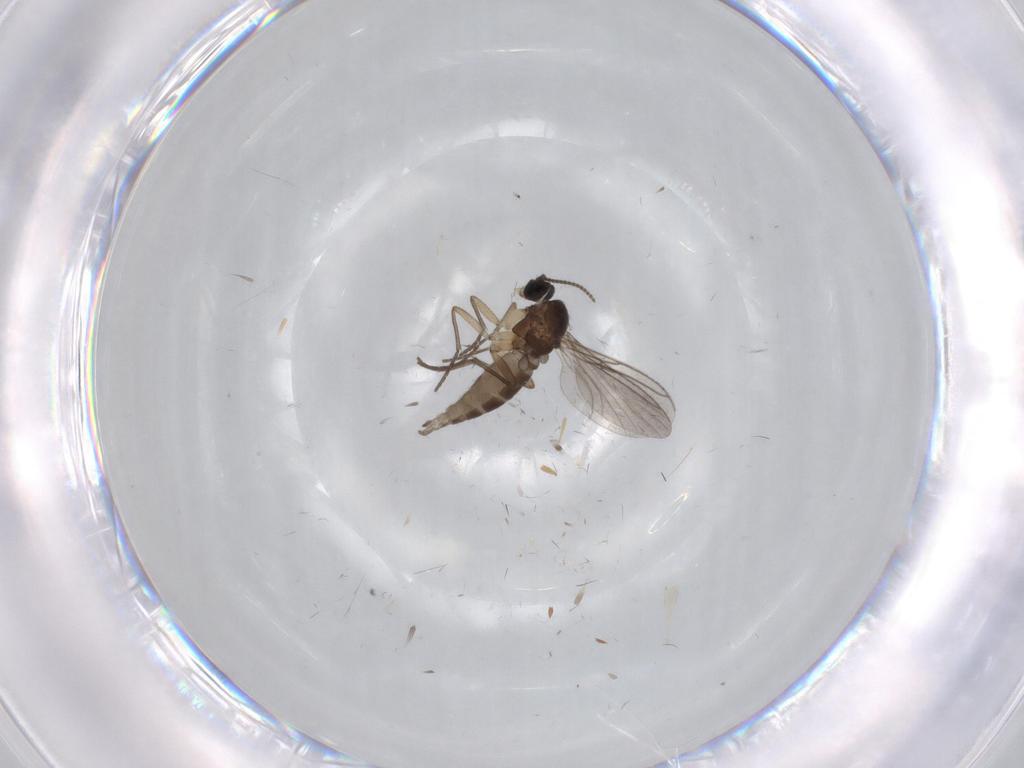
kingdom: Animalia
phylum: Arthropoda
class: Insecta
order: Diptera
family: Sciaridae
